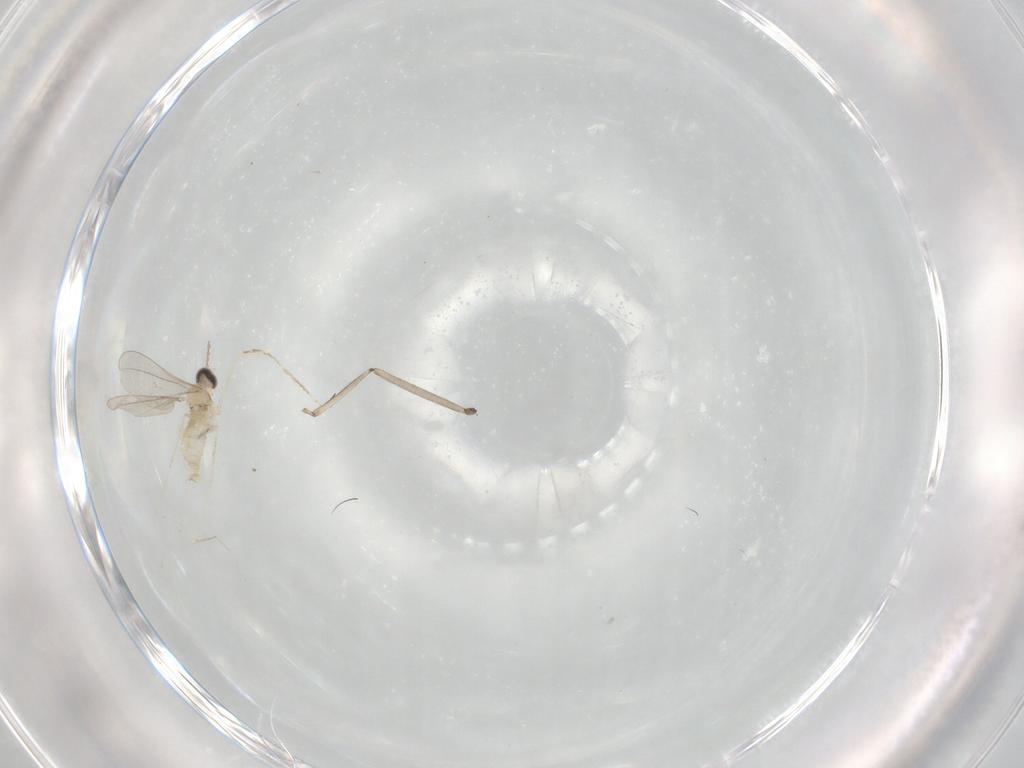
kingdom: Animalia
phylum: Arthropoda
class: Insecta
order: Diptera
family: Cecidomyiidae
